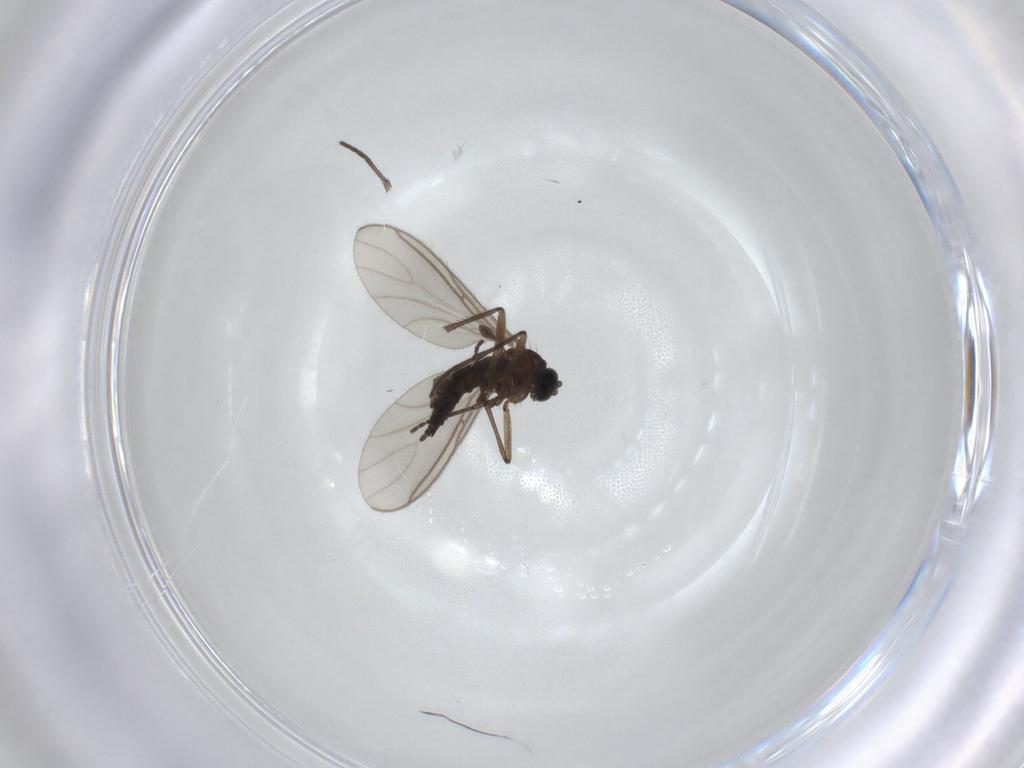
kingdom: Animalia
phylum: Arthropoda
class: Insecta
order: Diptera
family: Sciaridae
